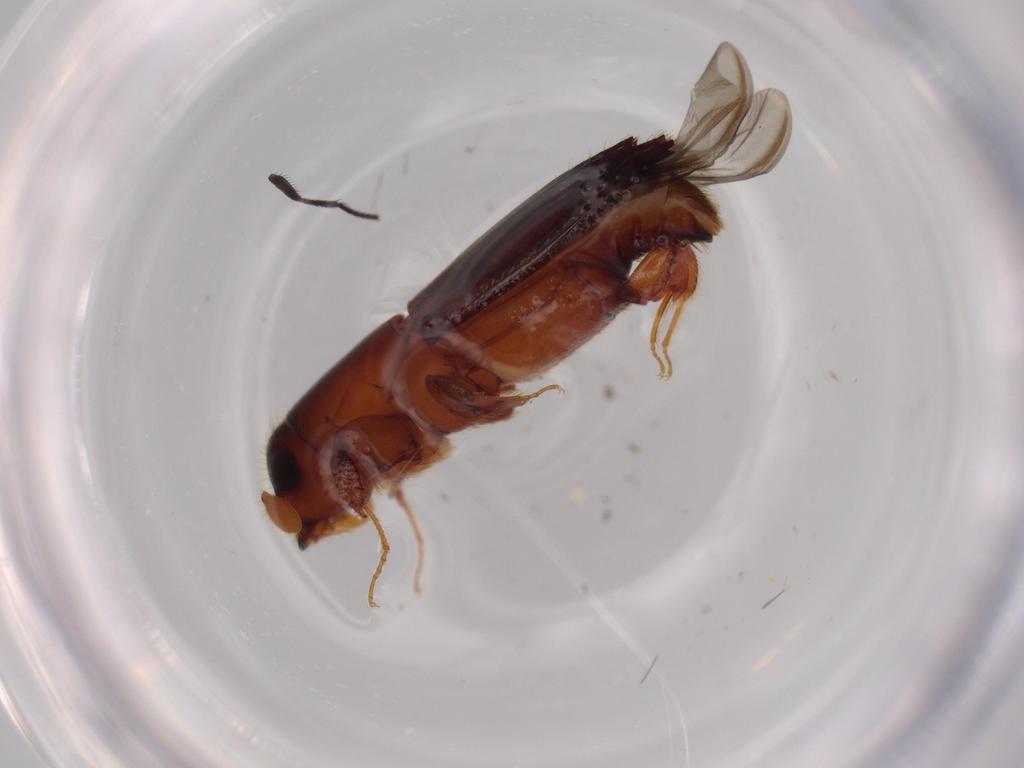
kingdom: Animalia
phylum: Arthropoda
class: Insecta
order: Coleoptera
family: Curculionidae
